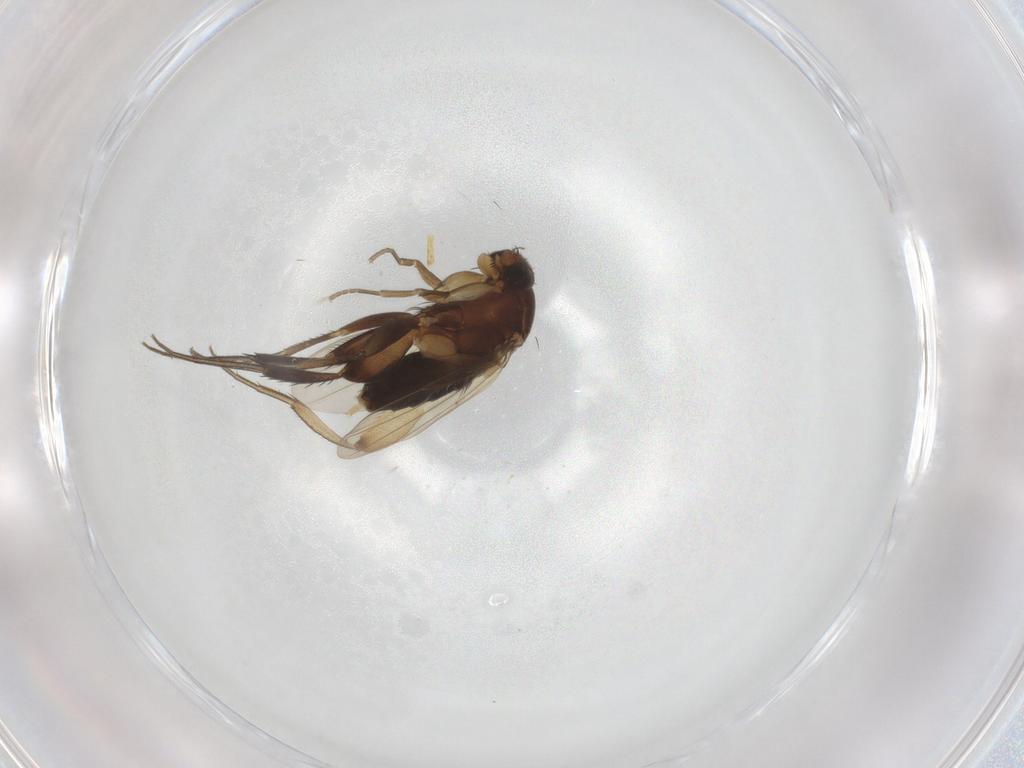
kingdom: Animalia
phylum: Arthropoda
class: Insecta
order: Diptera
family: Phoridae
